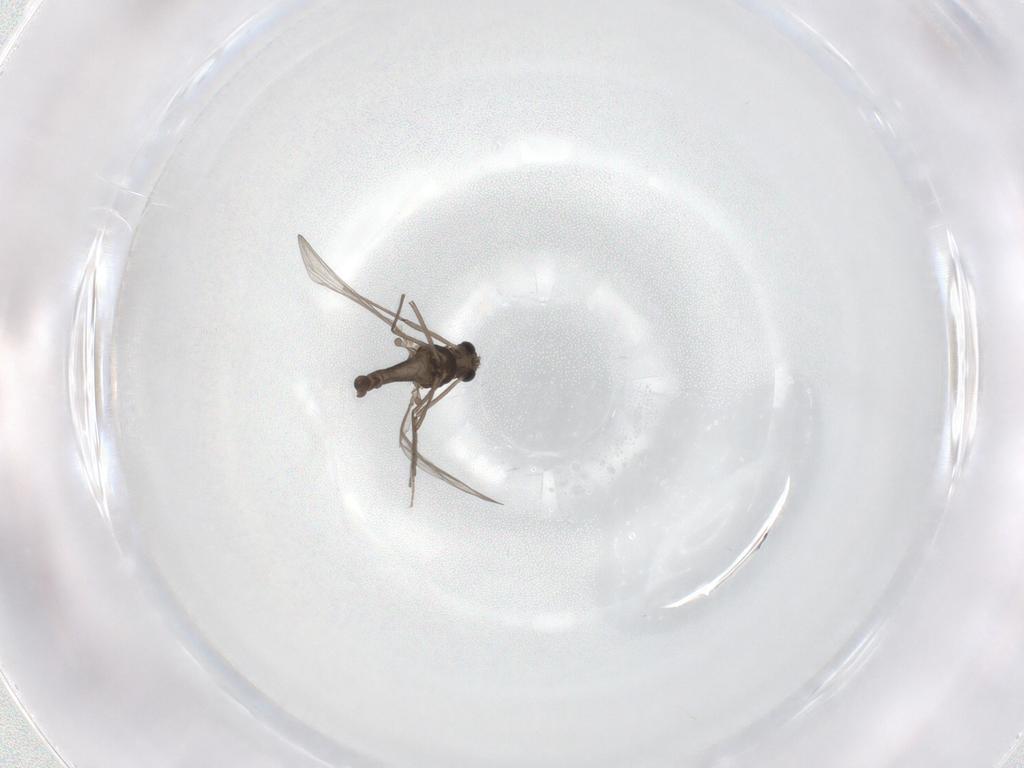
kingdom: Animalia
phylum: Arthropoda
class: Insecta
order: Diptera
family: Chironomidae
